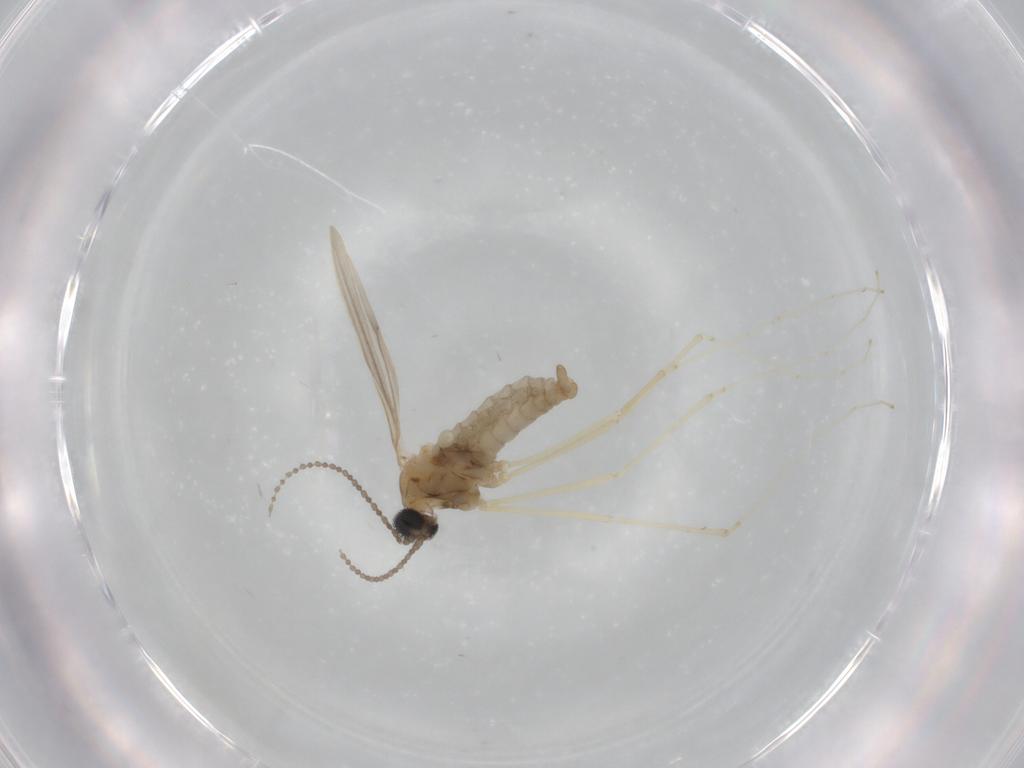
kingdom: Animalia
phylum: Arthropoda
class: Insecta
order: Diptera
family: Cecidomyiidae
